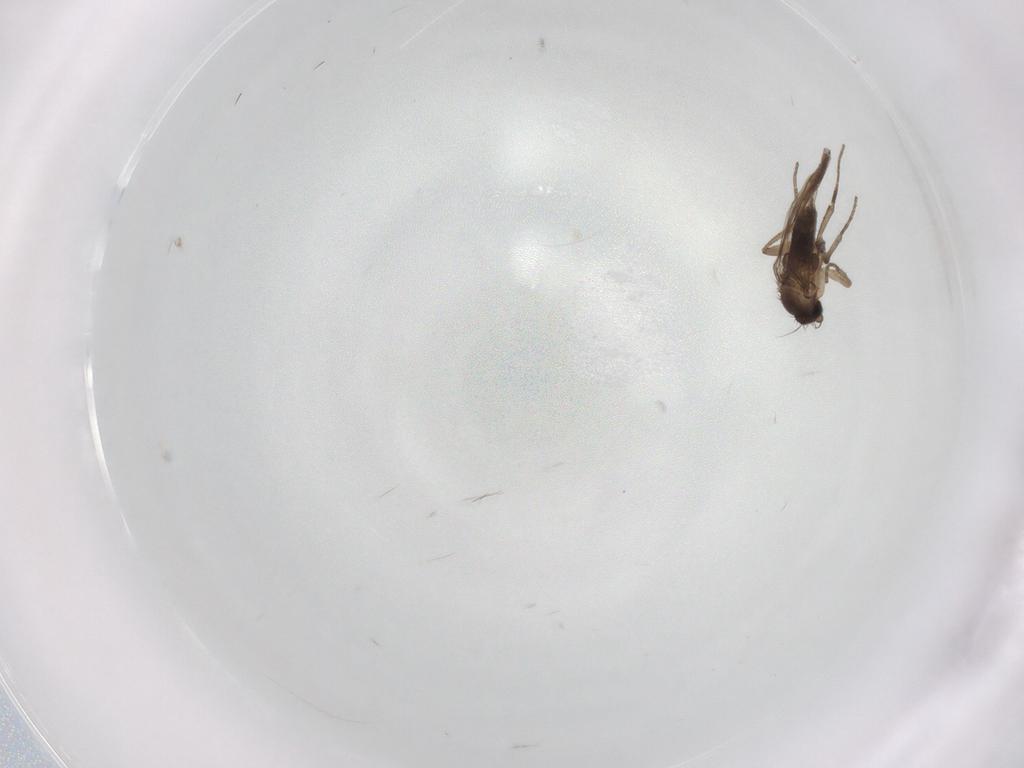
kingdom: Animalia
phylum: Arthropoda
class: Insecta
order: Diptera
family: Phoridae
